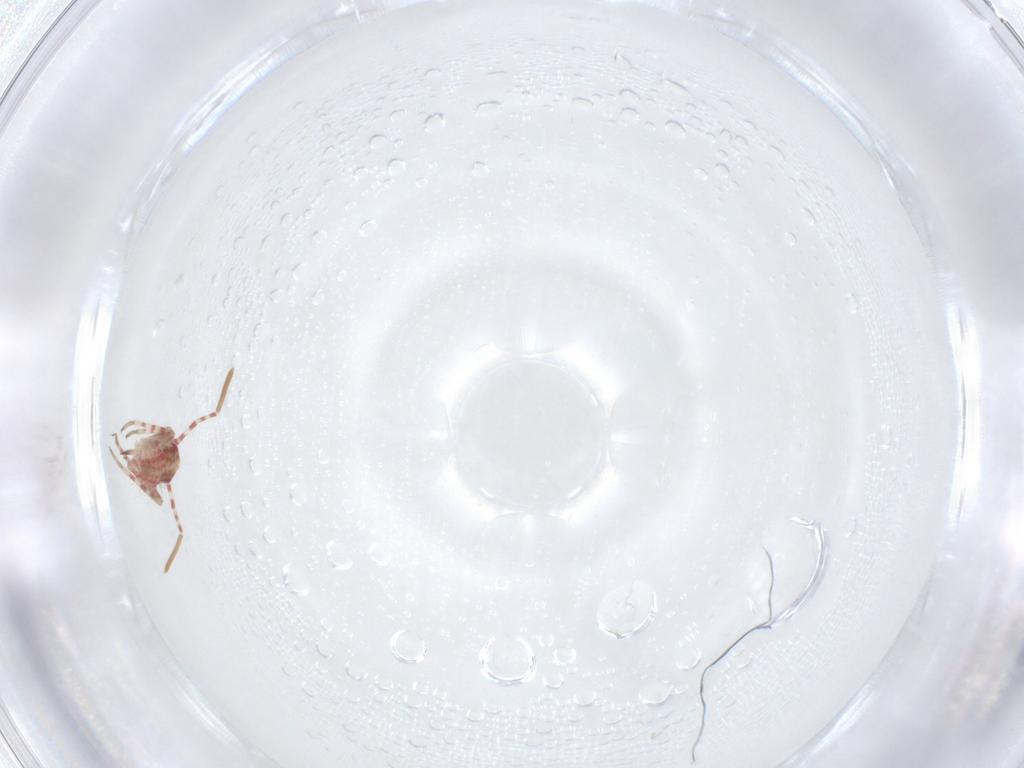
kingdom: Animalia
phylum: Arthropoda
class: Insecta
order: Hemiptera
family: Miridae
